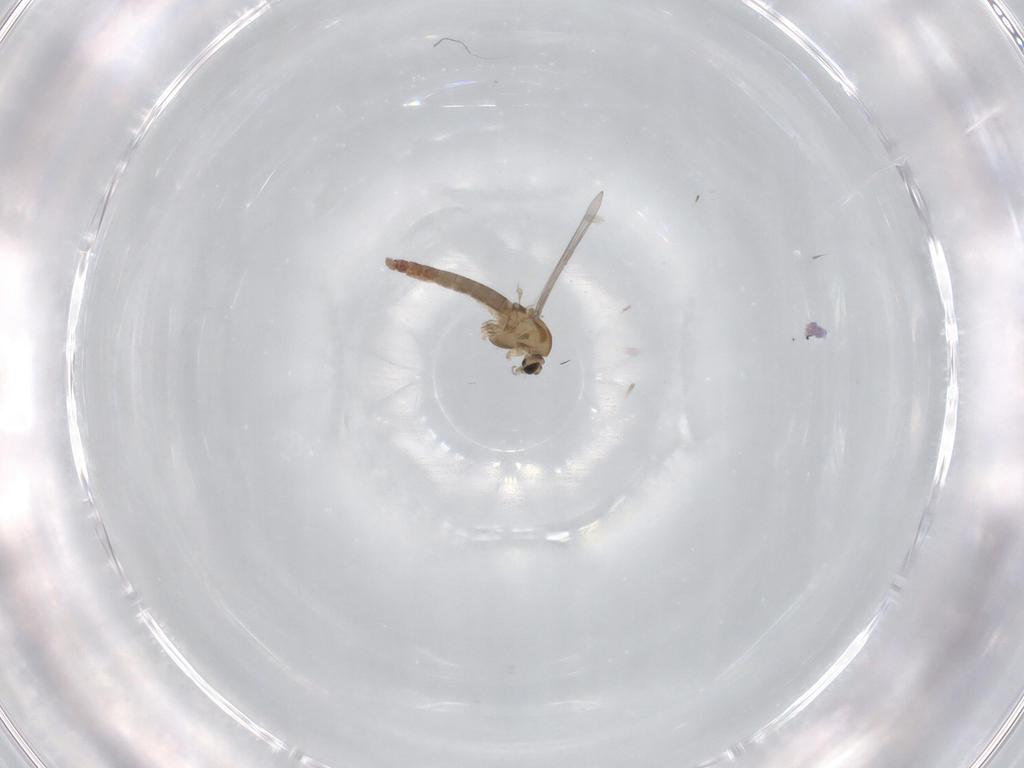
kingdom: Animalia
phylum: Arthropoda
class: Insecta
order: Diptera
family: Chironomidae
